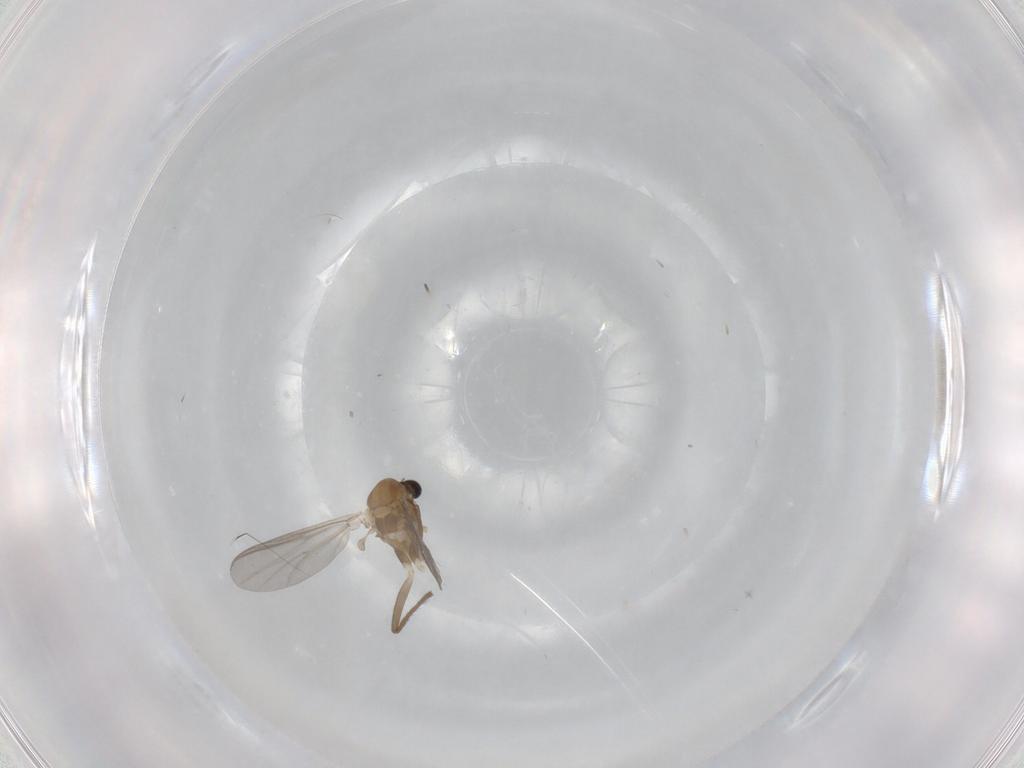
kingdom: Animalia
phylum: Arthropoda
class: Insecta
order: Diptera
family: Chironomidae
